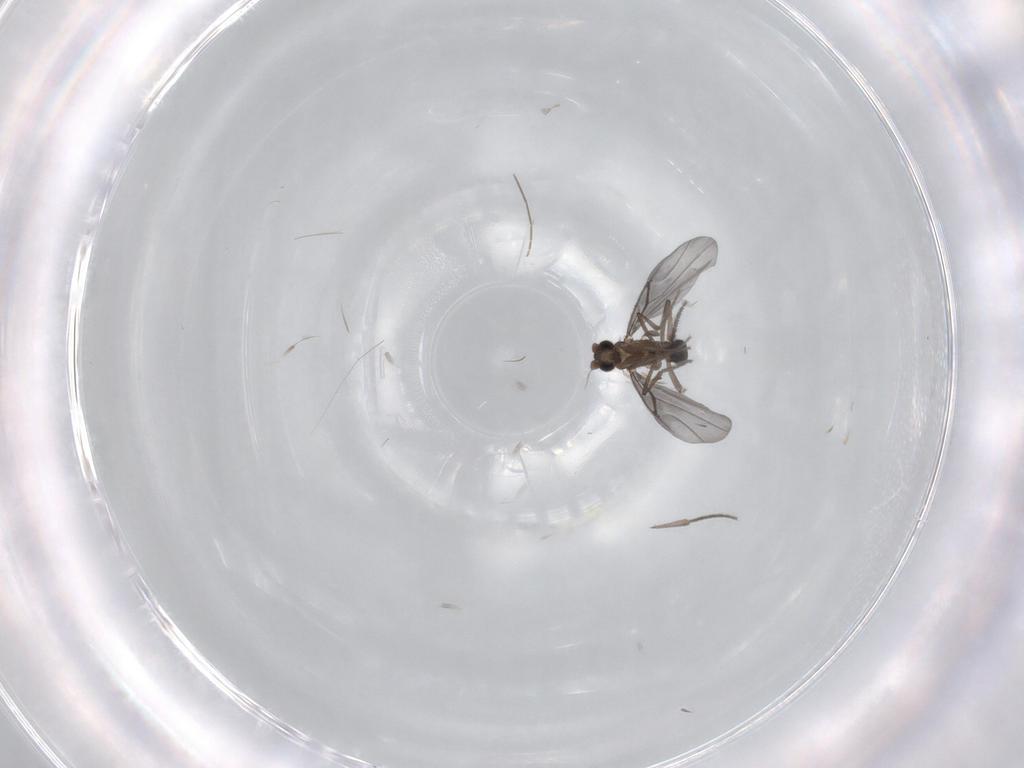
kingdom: Animalia
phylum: Arthropoda
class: Insecta
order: Diptera
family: Phoridae
